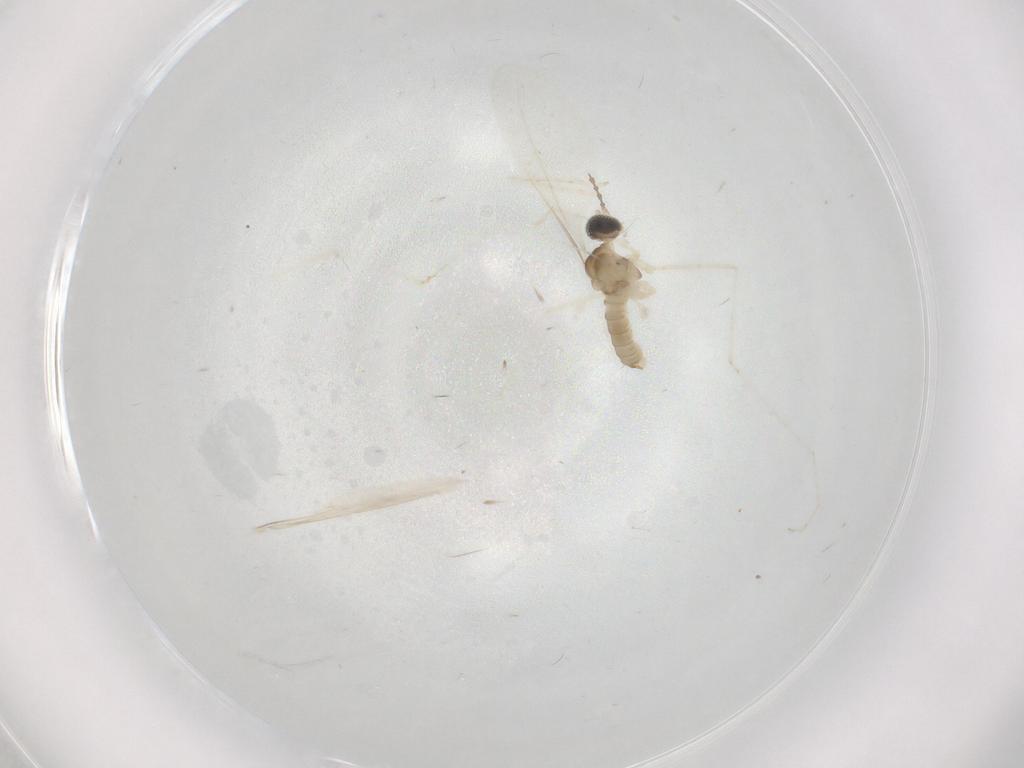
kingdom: Animalia
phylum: Arthropoda
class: Insecta
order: Diptera
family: Cecidomyiidae
